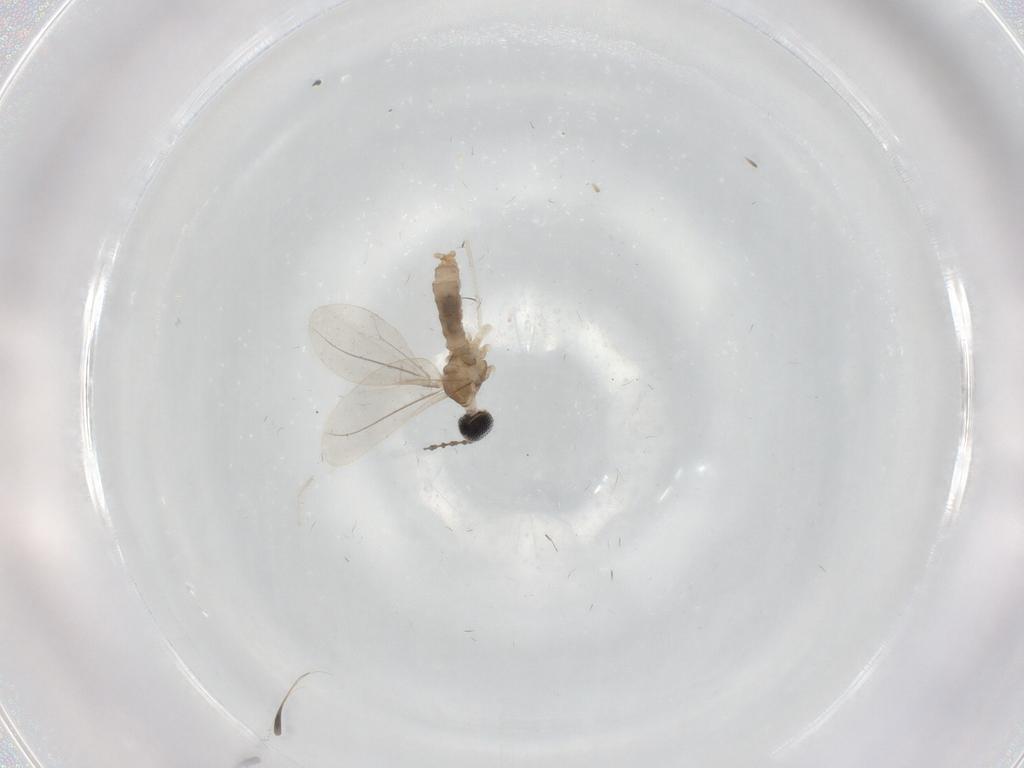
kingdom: Animalia
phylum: Arthropoda
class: Insecta
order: Diptera
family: Cecidomyiidae
